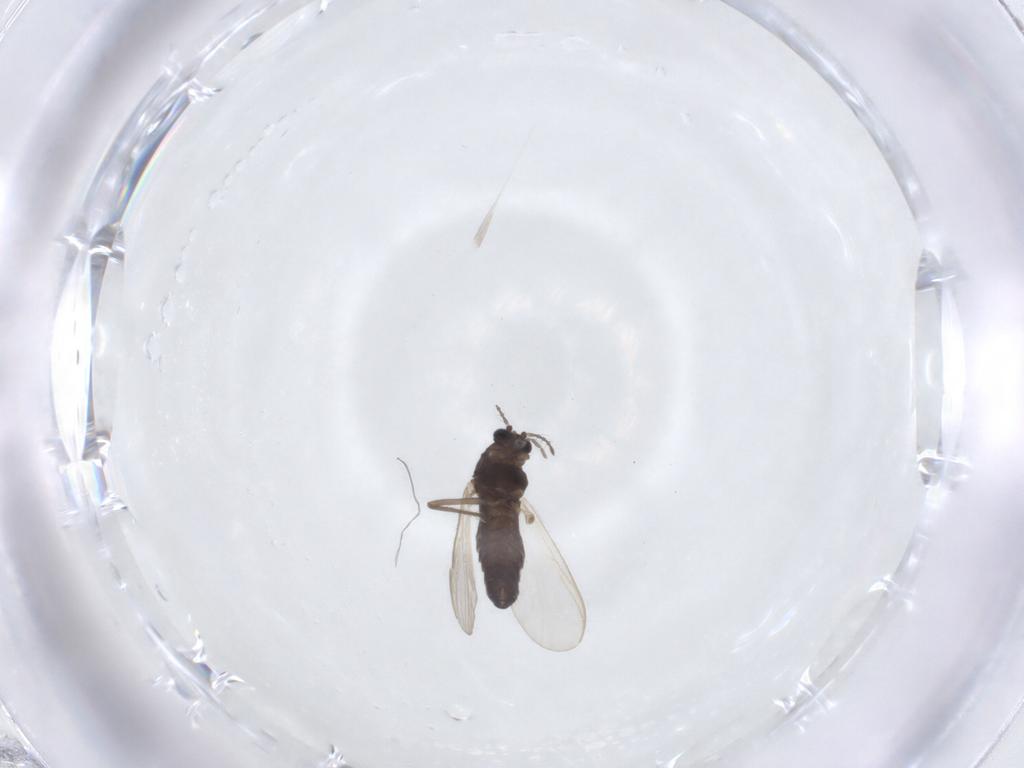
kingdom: Animalia
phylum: Arthropoda
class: Insecta
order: Diptera
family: Chironomidae
